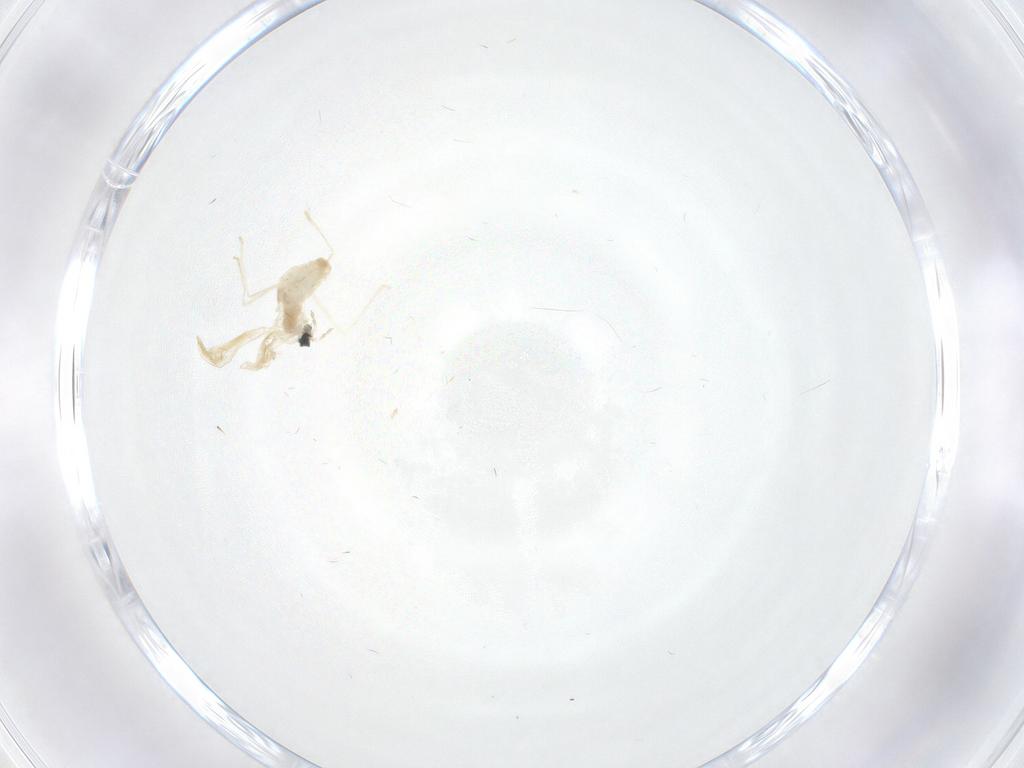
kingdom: Animalia
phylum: Arthropoda
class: Insecta
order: Diptera
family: Cecidomyiidae
